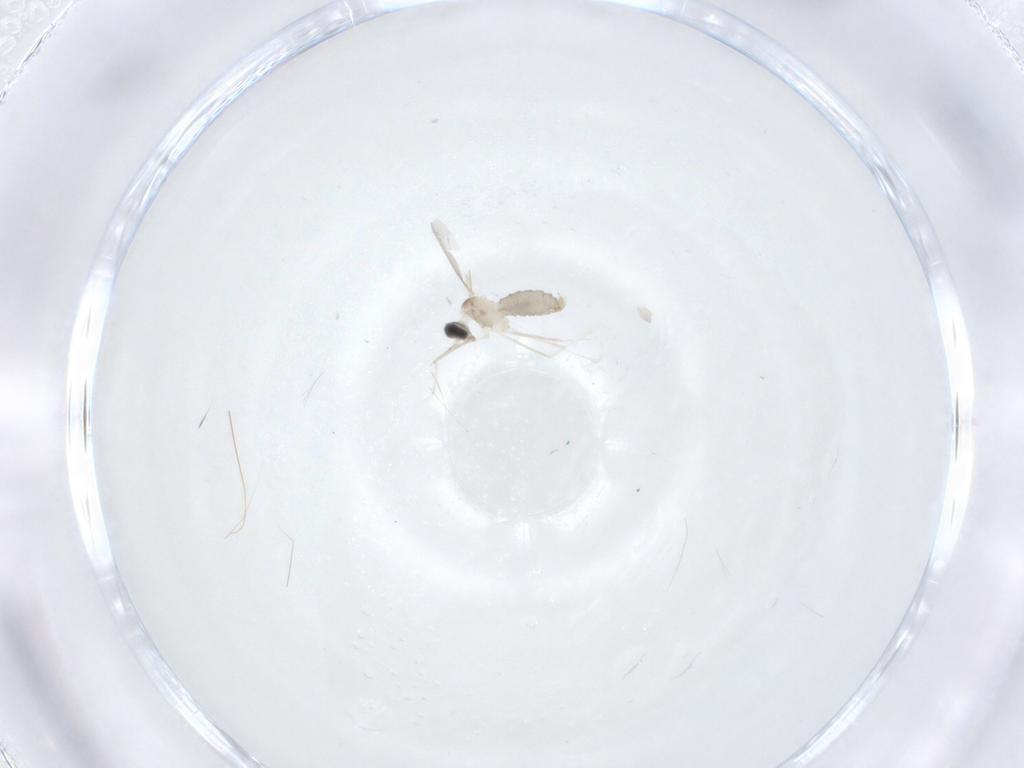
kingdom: Animalia
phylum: Arthropoda
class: Insecta
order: Diptera
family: Cecidomyiidae
